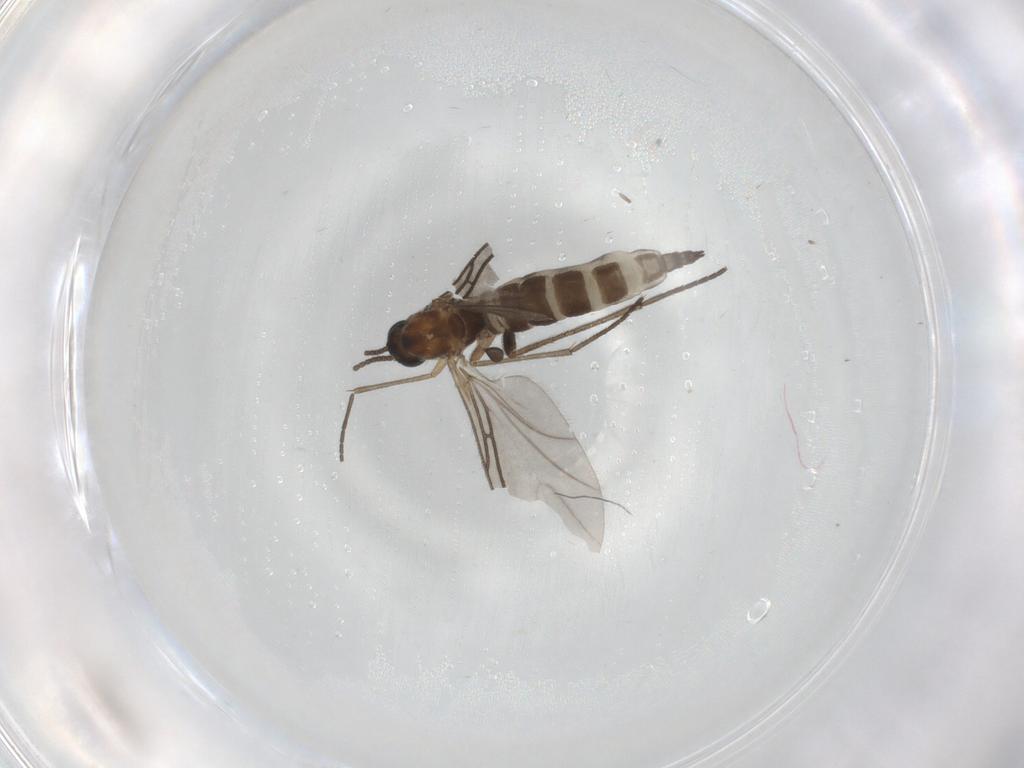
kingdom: Animalia
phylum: Arthropoda
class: Insecta
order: Diptera
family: Sciaridae
